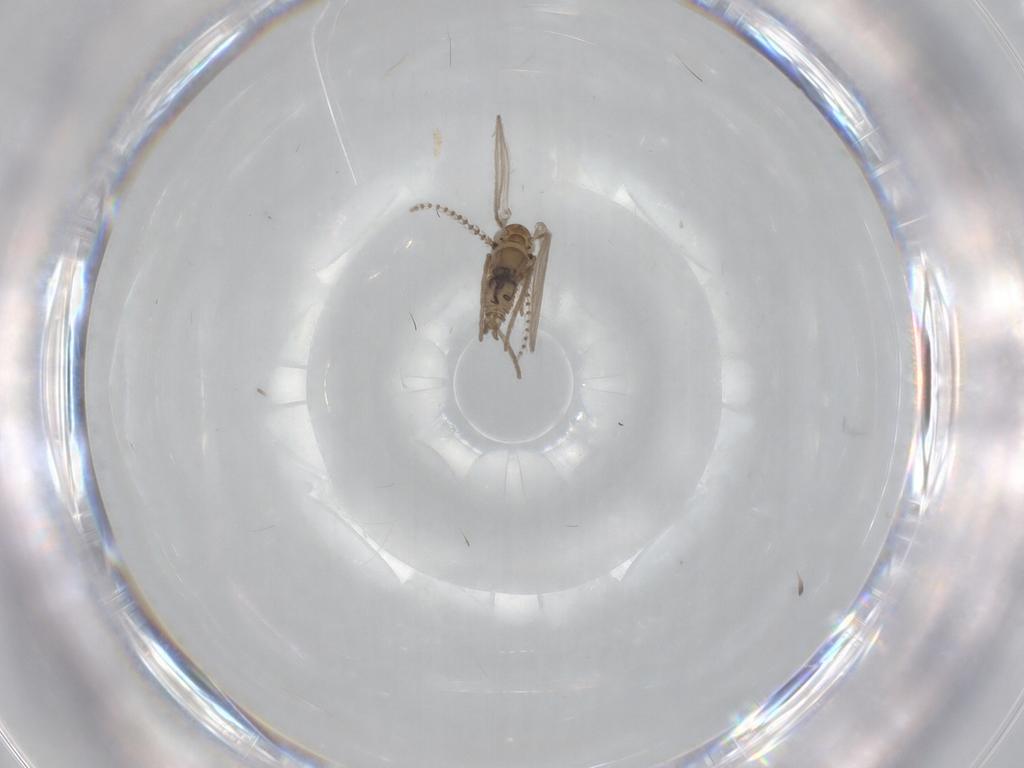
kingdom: Animalia
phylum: Arthropoda
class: Insecta
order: Diptera
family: Psychodidae
